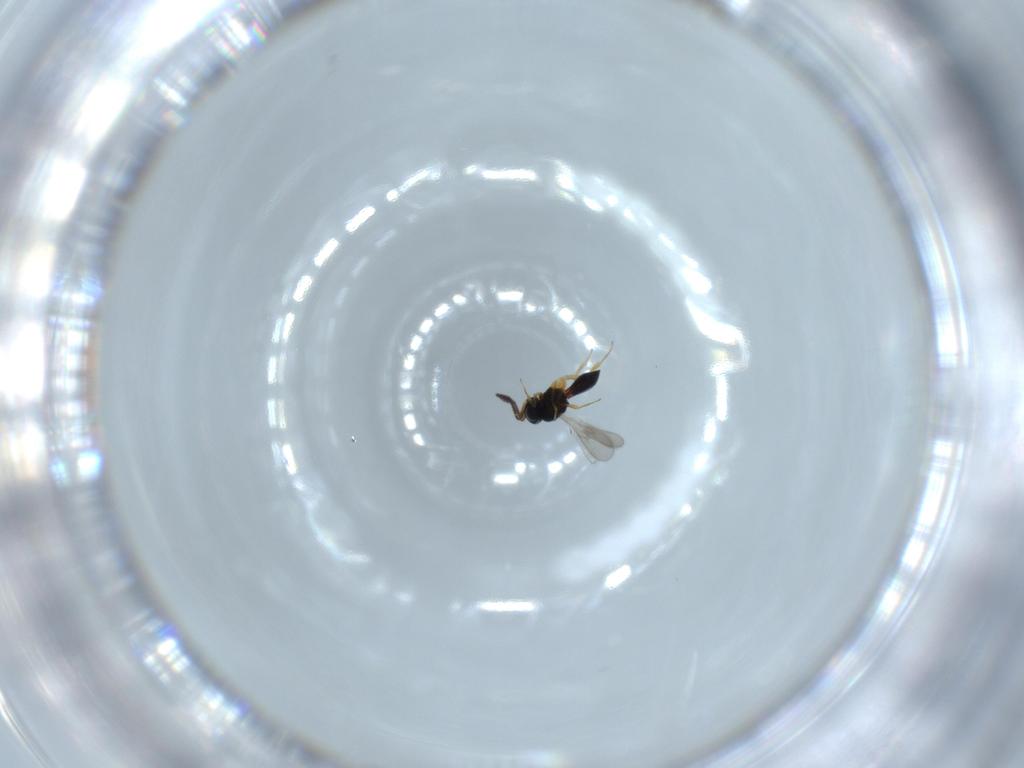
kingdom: Animalia
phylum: Arthropoda
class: Insecta
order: Hymenoptera
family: Scelionidae
